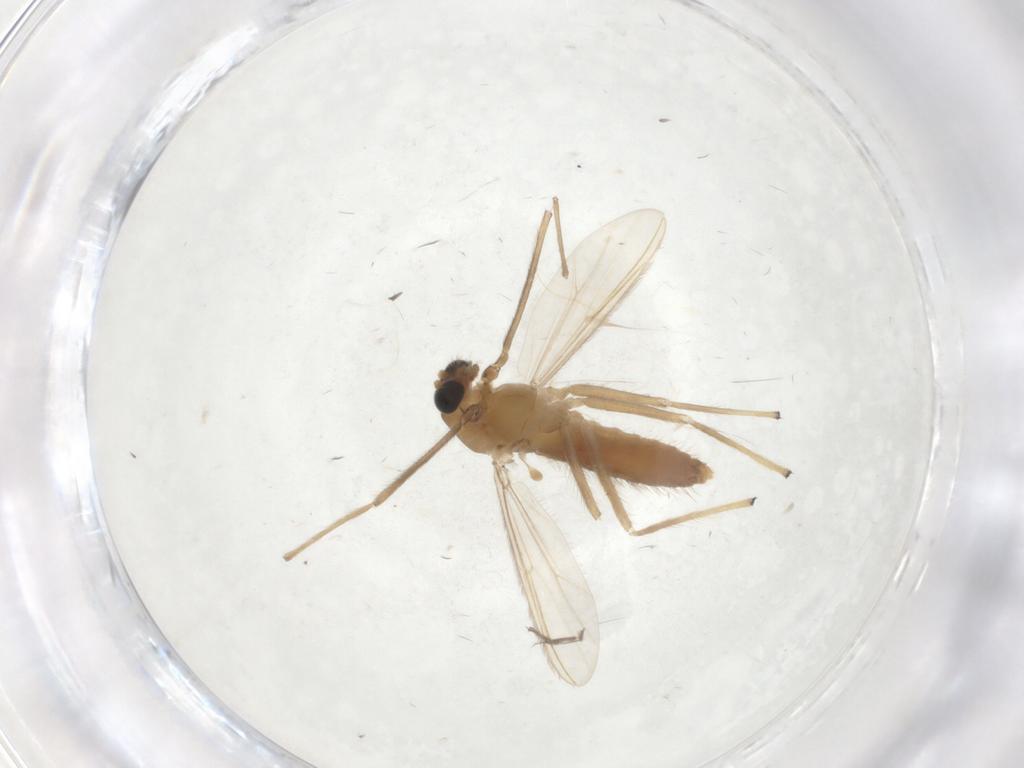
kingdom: Animalia
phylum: Arthropoda
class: Insecta
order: Diptera
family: Chironomidae
